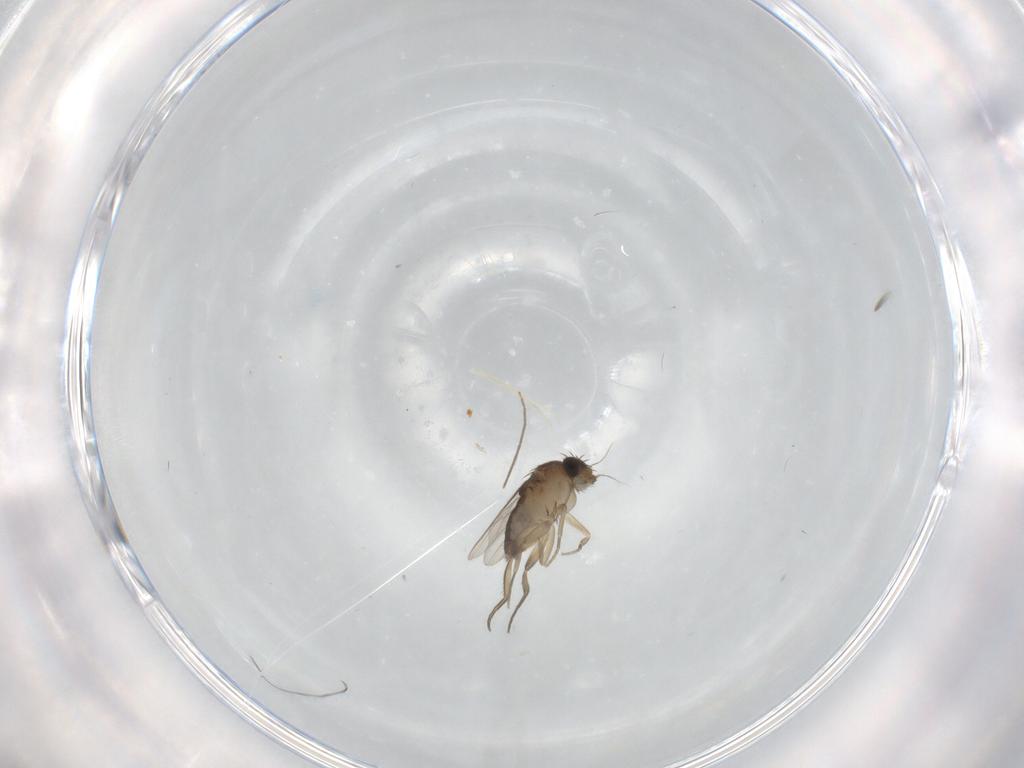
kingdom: Animalia
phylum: Arthropoda
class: Insecta
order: Diptera
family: Phoridae
